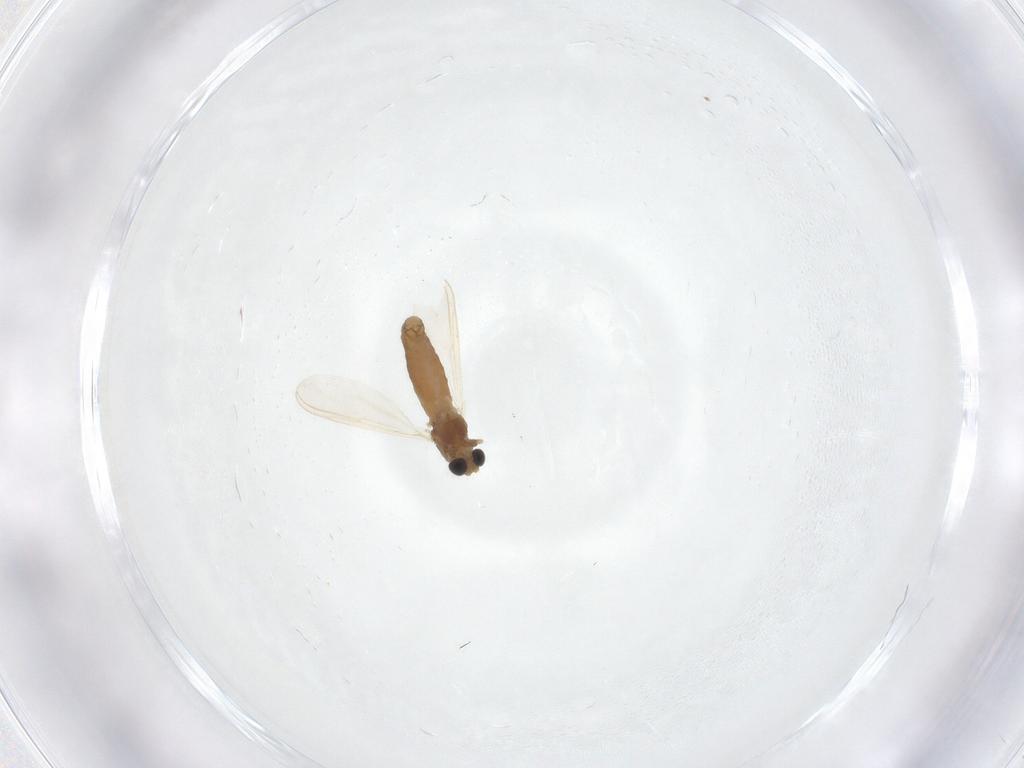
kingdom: Animalia
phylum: Arthropoda
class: Insecta
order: Diptera
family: Chironomidae
